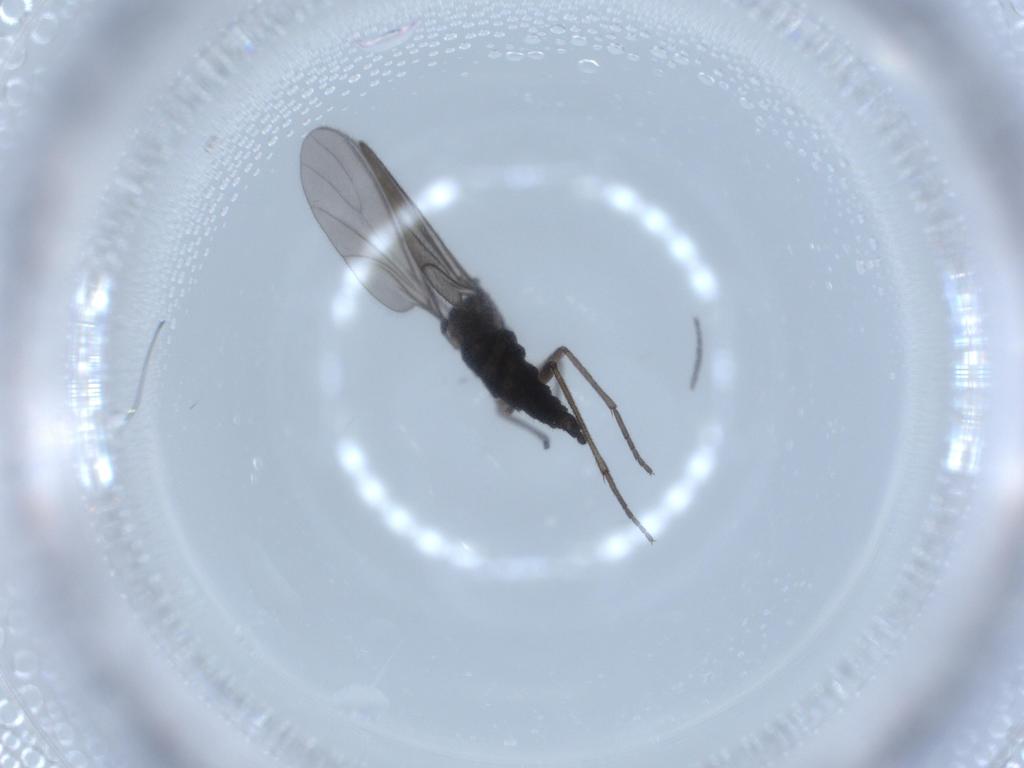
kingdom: Animalia
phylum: Arthropoda
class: Insecta
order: Diptera
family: Sciaridae
